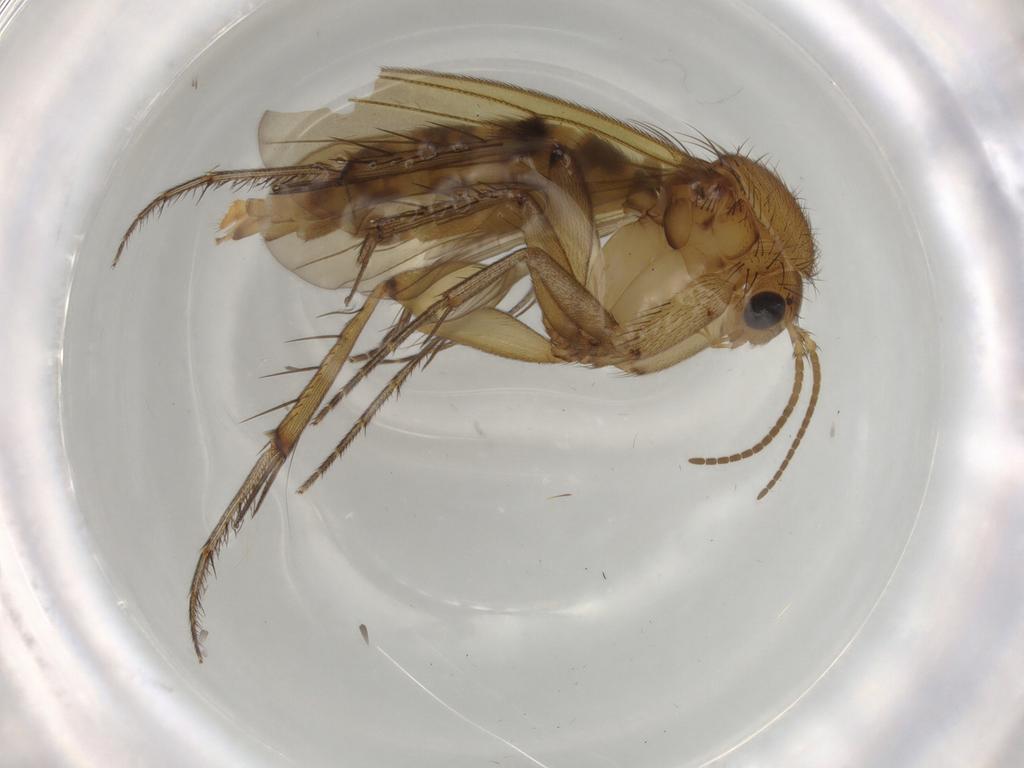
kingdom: Animalia
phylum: Arthropoda
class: Insecta
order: Diptera
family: Mycetophilidae
